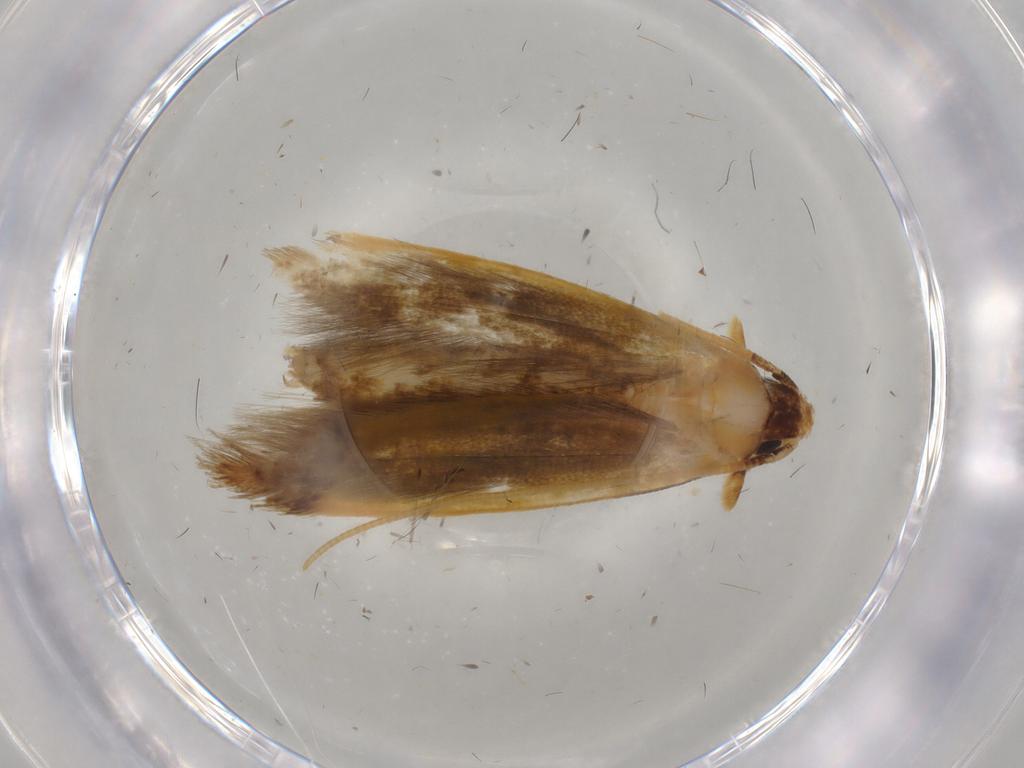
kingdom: Animalia
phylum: Arthropoda
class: Insecta
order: Lepidoptera
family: Tineidae
